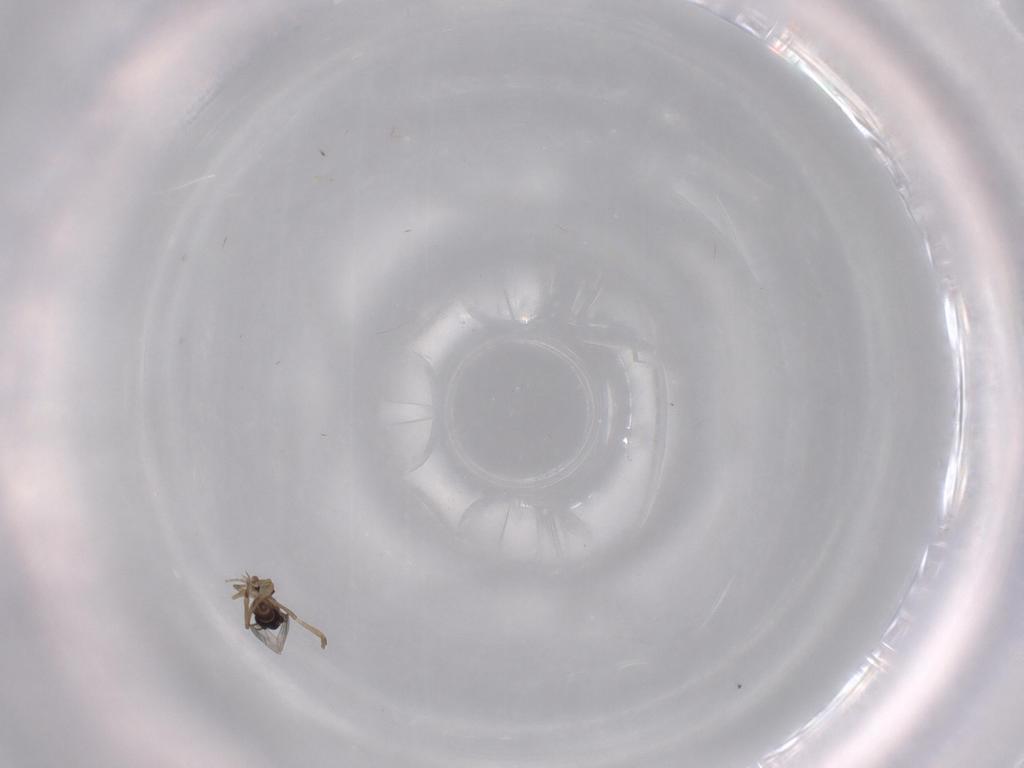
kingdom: Animalia
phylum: Arthropoda
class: Insecta
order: Diptera
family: Phoridae
